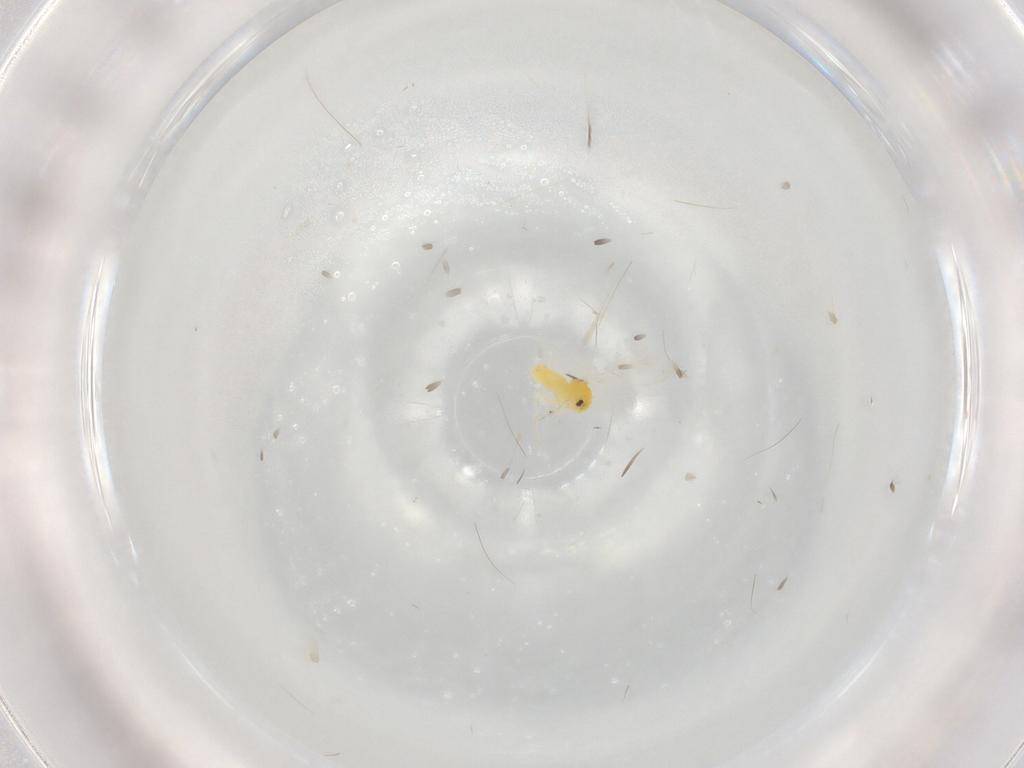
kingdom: Animalia
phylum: Arthropoda
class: Insecta
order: Hemiptera
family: Aleyrodidae
